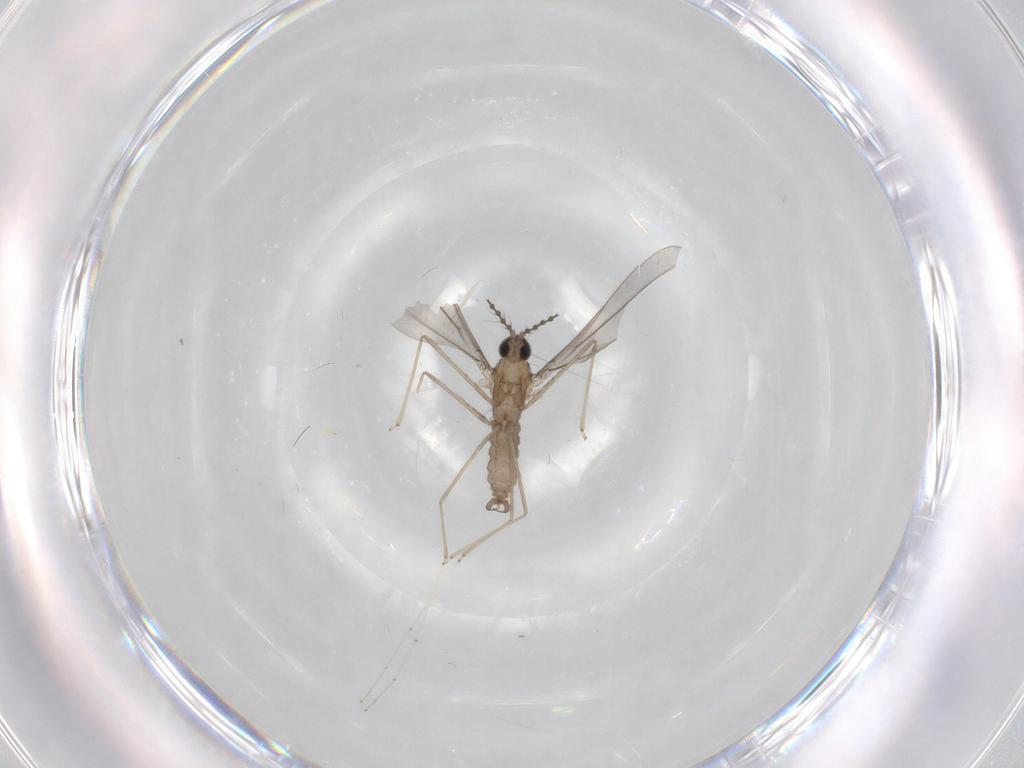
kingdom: Animalia
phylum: Arthropoda
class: Insecta
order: Diptera
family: Cecidomyiidae
